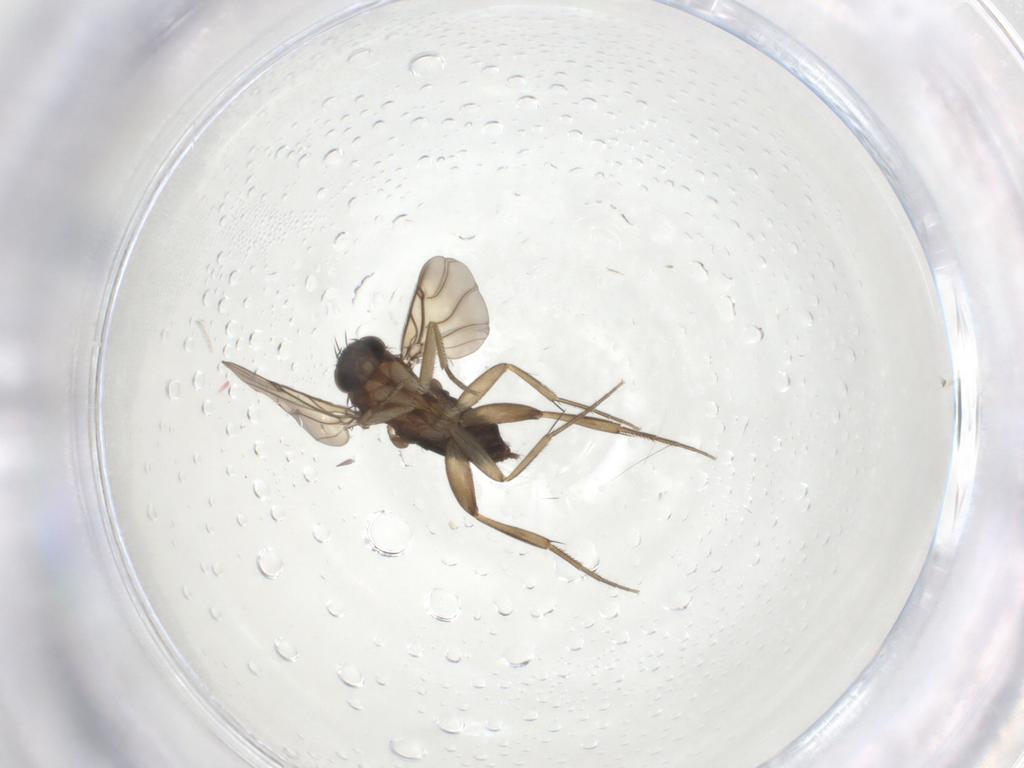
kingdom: Animalia
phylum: Arthropoda
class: Insecta
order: Diptera
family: Phoridae
